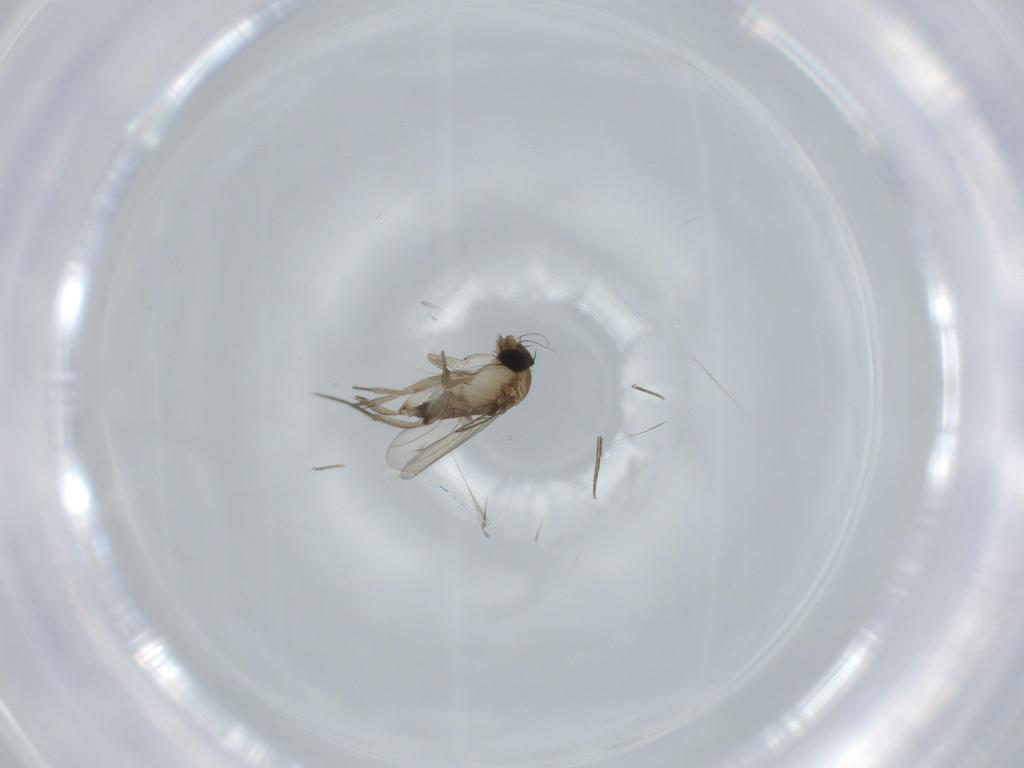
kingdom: Animalia
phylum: Arthropoda
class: Insecta
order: Diptera
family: Phoridae
